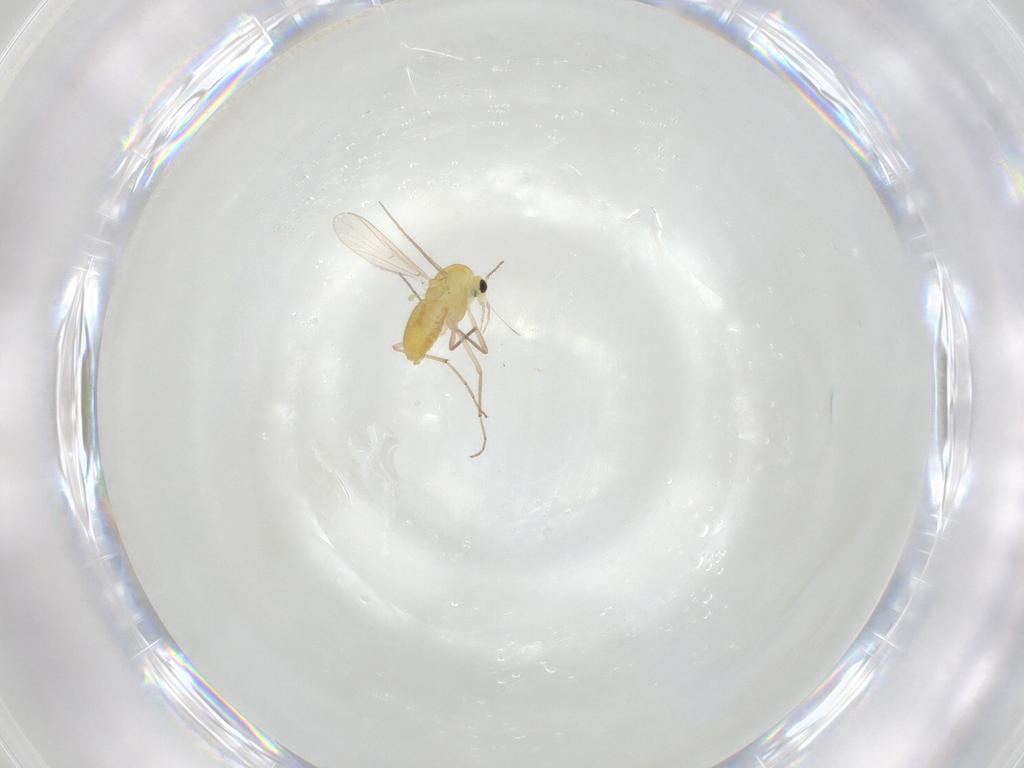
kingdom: Animalia
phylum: Arthropoda
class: Insecta
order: Diptera
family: Chironomidae
